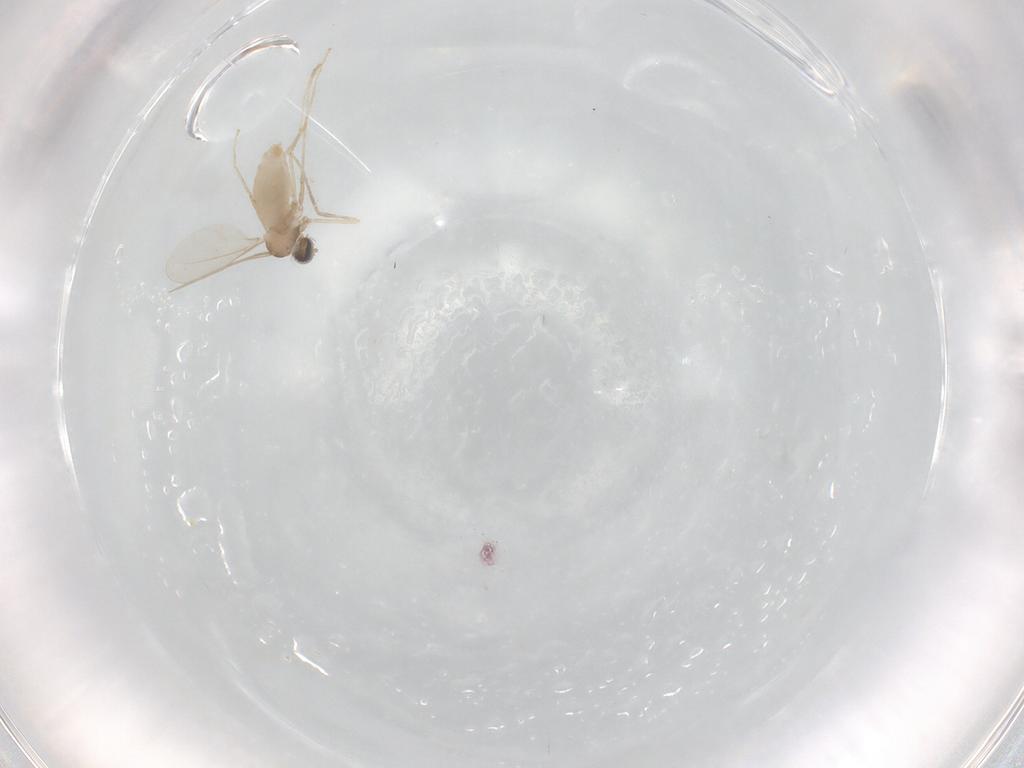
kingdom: Animalia
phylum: Arthropoda
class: Insecta
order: Diptera
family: Cecidomyiidae
